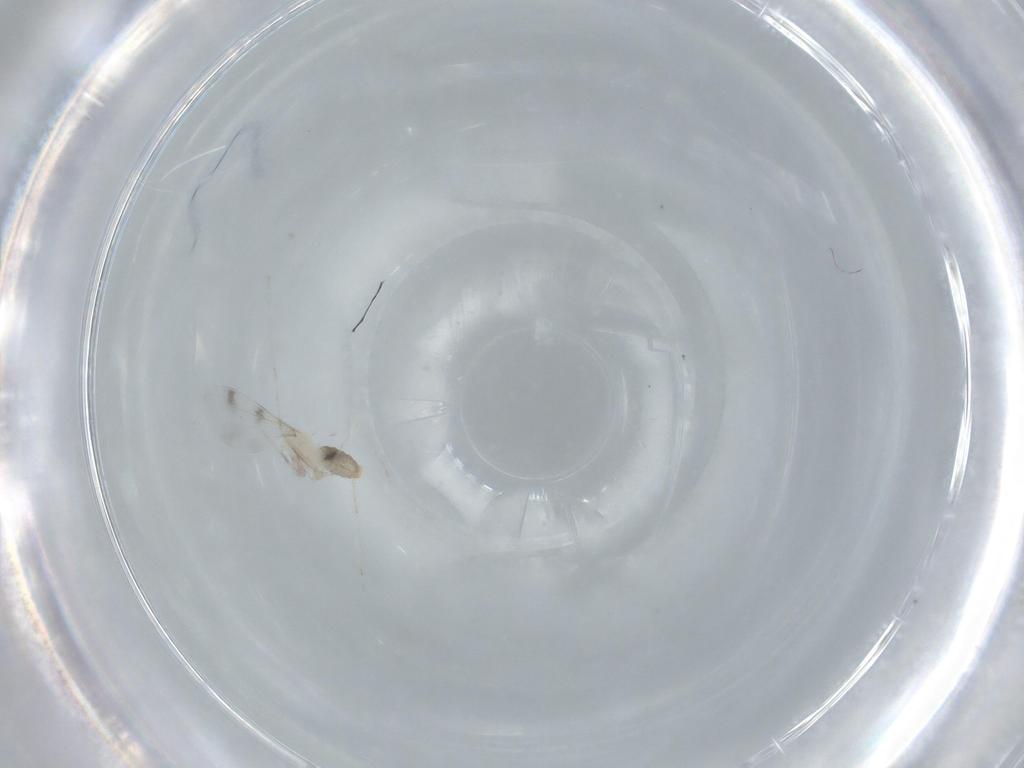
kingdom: Animalia
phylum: Arthropoda
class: Insecta
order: Diptera
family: Cecidomyiidae
